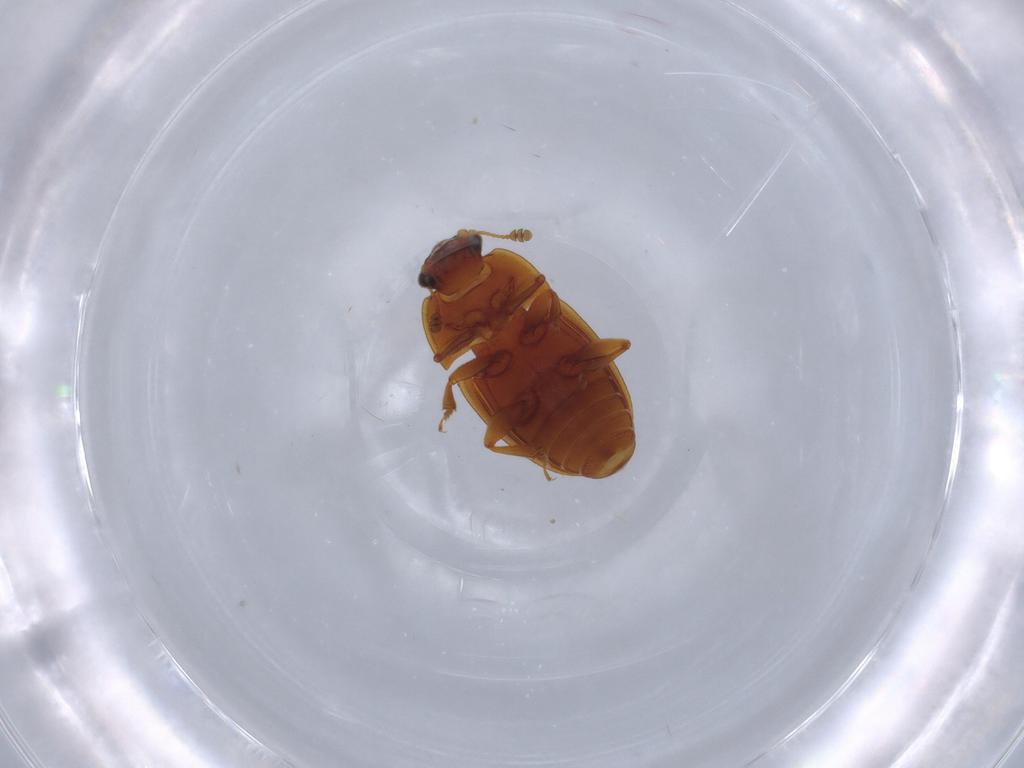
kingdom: Animalia
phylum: Arthropoda
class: Insecta
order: Coleoptera
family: Nitidulidae
